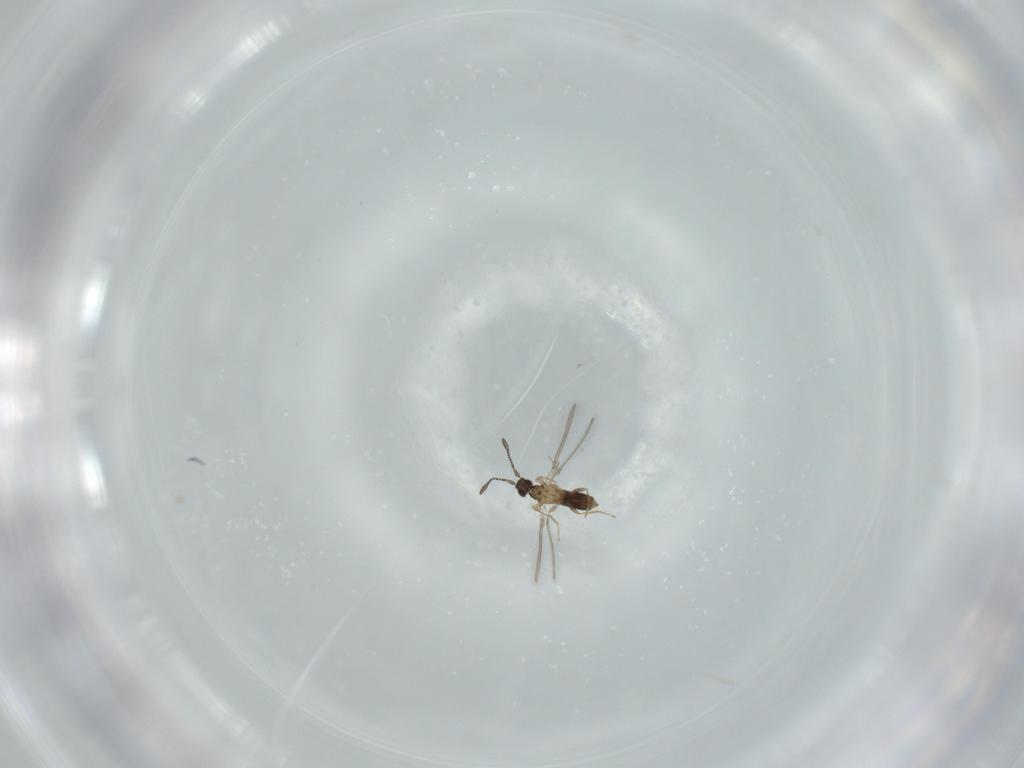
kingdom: Animalia
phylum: Arthropoda
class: Insecta
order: Hymenoptera
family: Mymaridae
